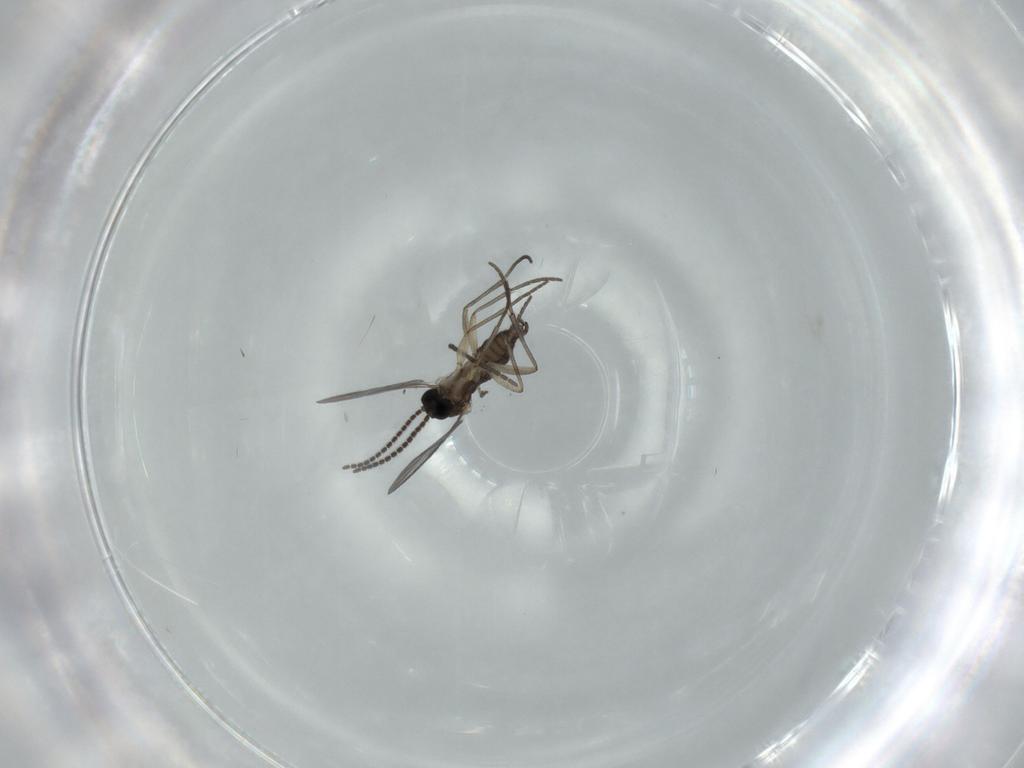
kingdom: Animalia
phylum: Arthropoda
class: Insecta
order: Diptera
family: Sciaridae
